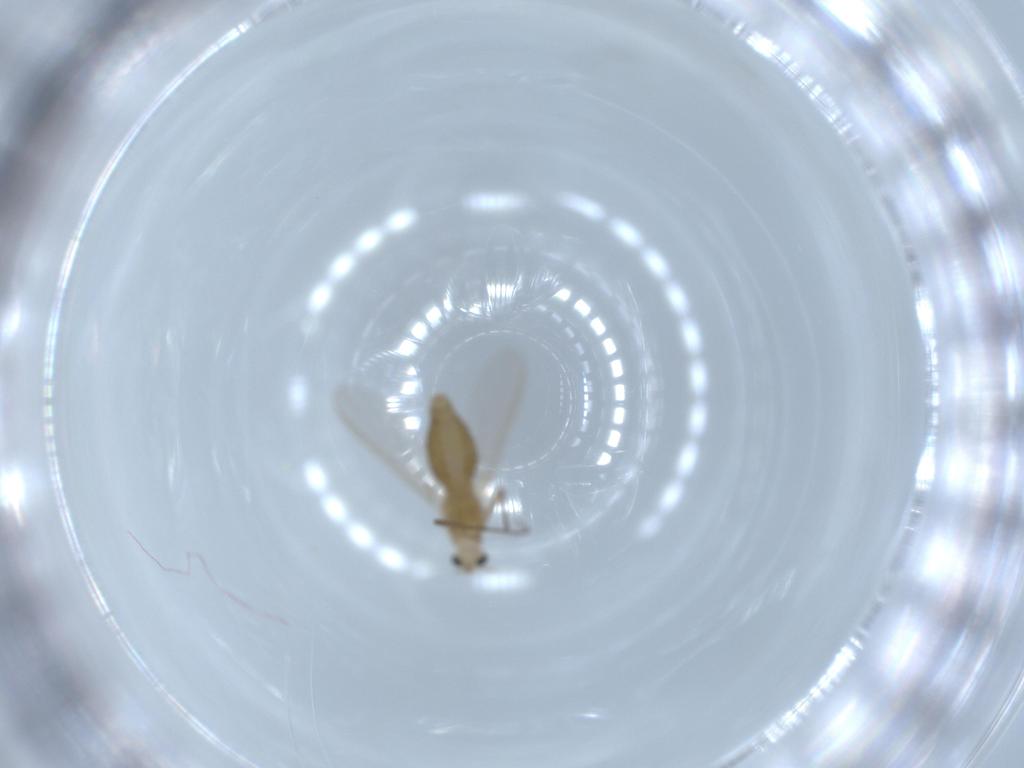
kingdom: Animalia
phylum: Arthropoda
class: Insecta
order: Diptera
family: Chironomidae
